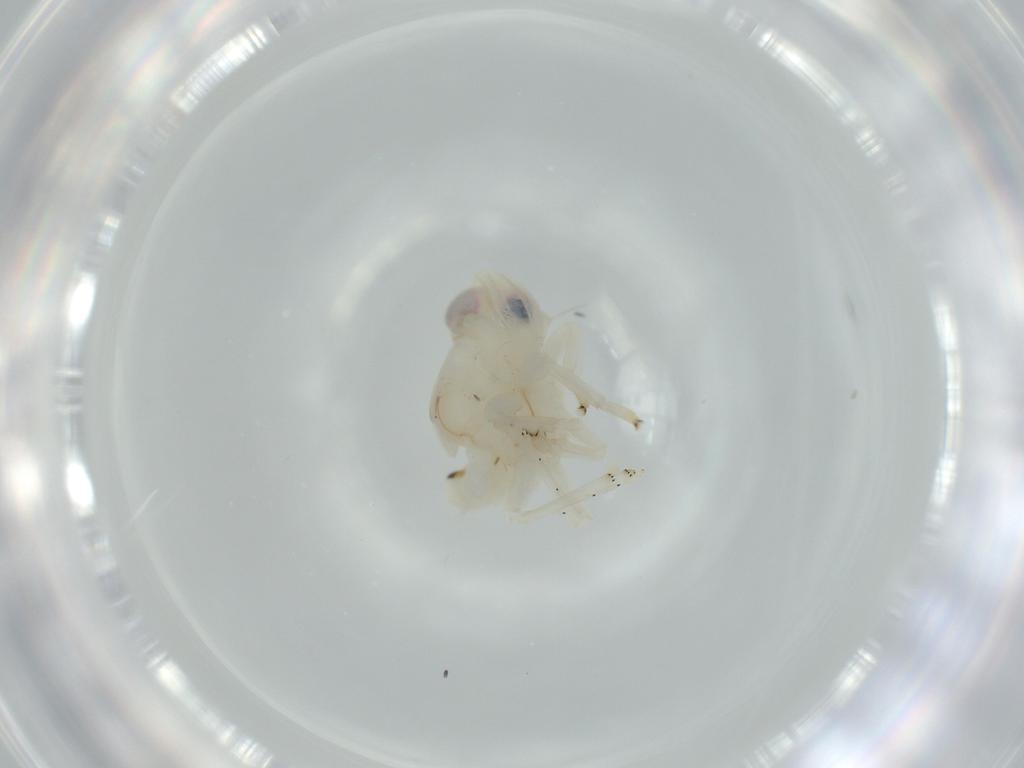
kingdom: Animalia
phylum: Arthropoda
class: Insecta
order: Hemiptera
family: Nogodinidae
